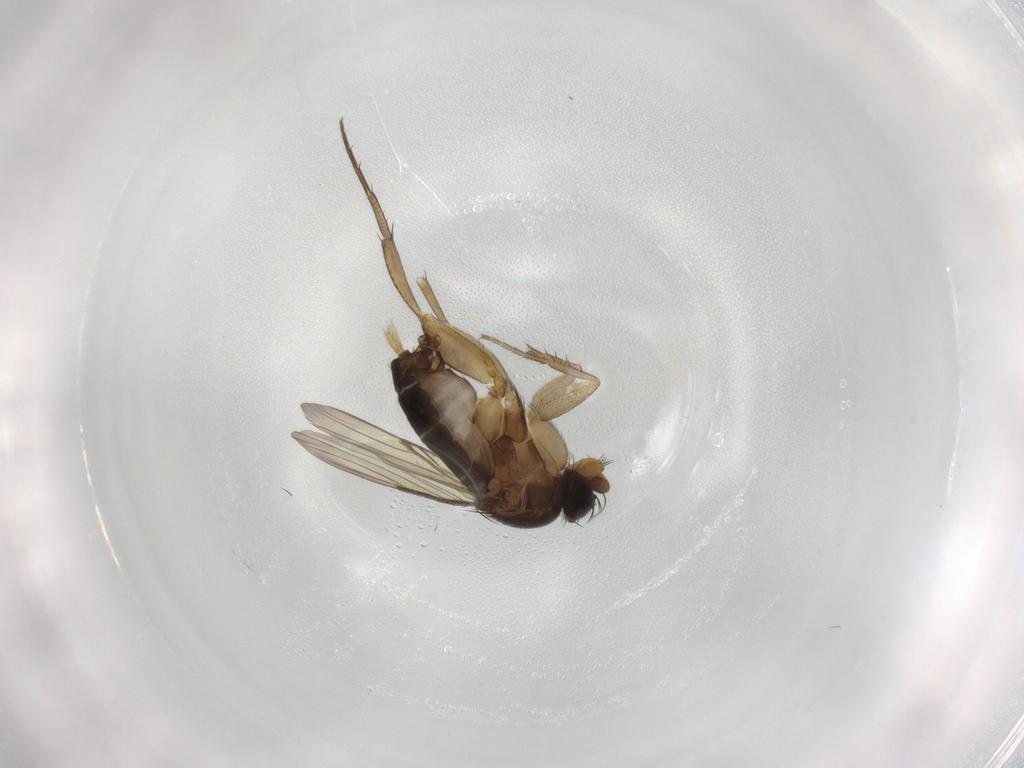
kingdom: Animalia
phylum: Arthropoda
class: Insecta
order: Diptera
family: Phoridae
